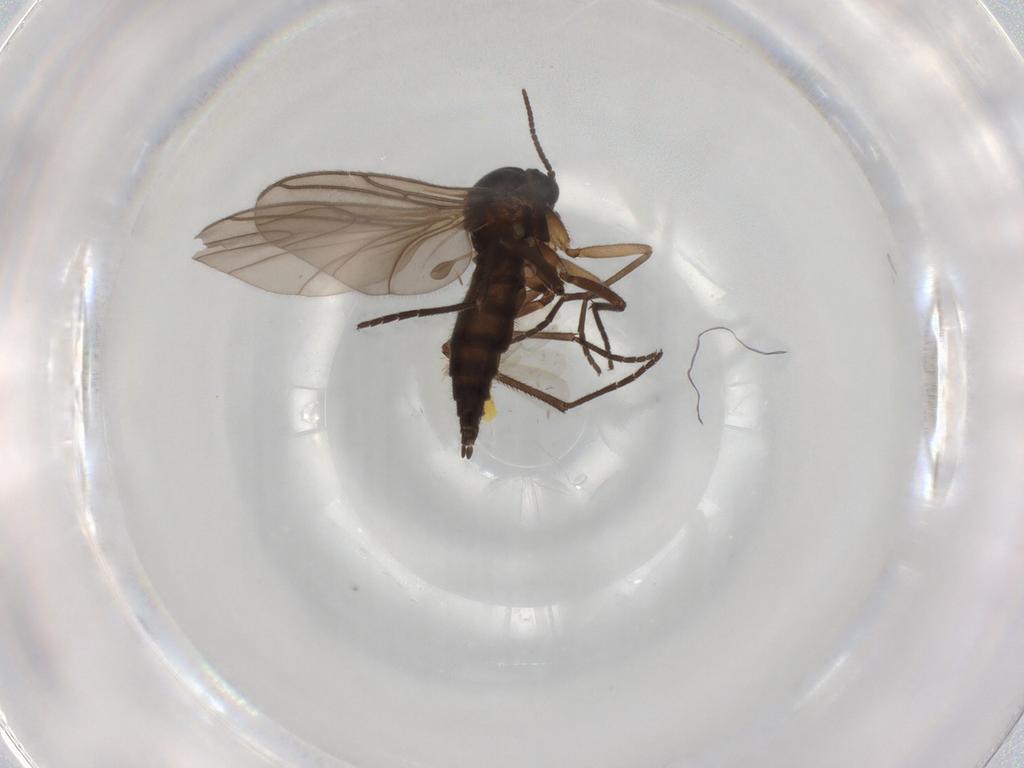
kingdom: Animalia
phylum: Arthropoda
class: Insecta
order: Diptera
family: Sciaridae
